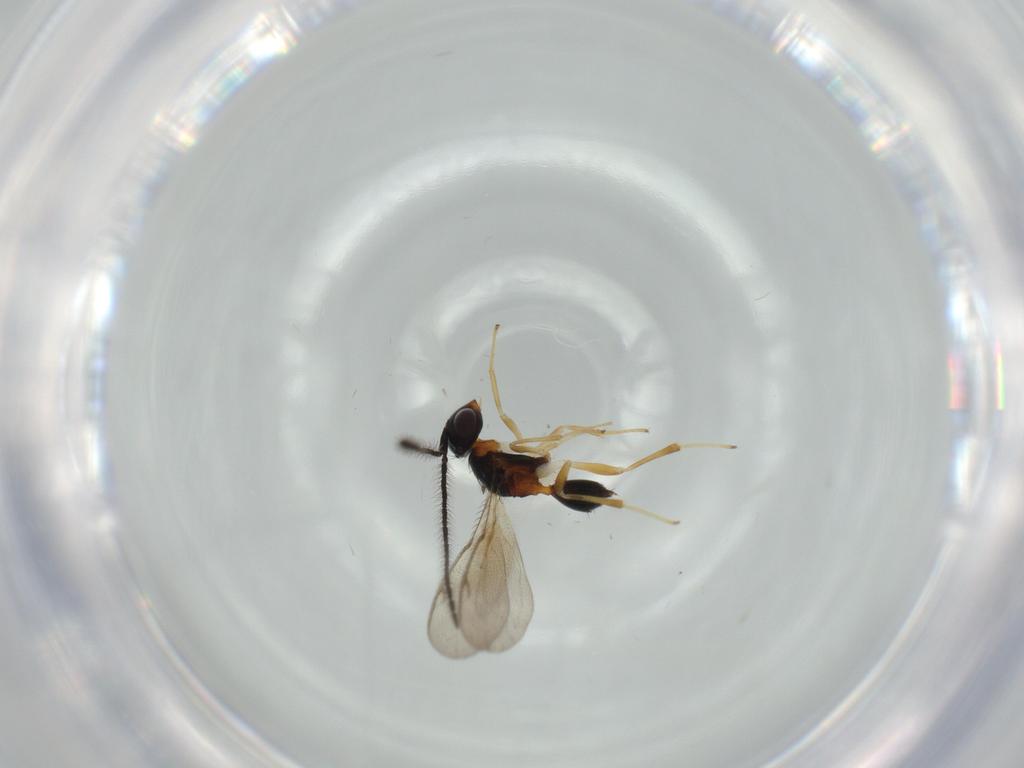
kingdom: Animalia
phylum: Arthropoda
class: Insecta
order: Hymenoptera
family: Diparidae
